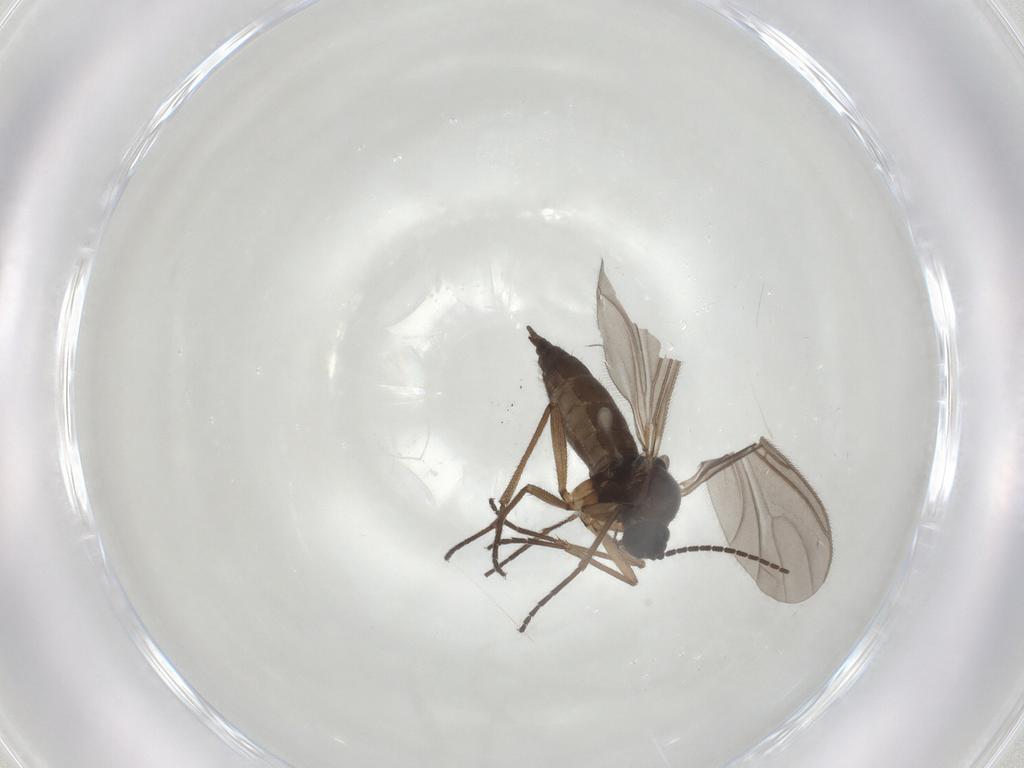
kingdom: Animalia
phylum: Arthropoda
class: Insecta
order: Diptera
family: Sciaridae
